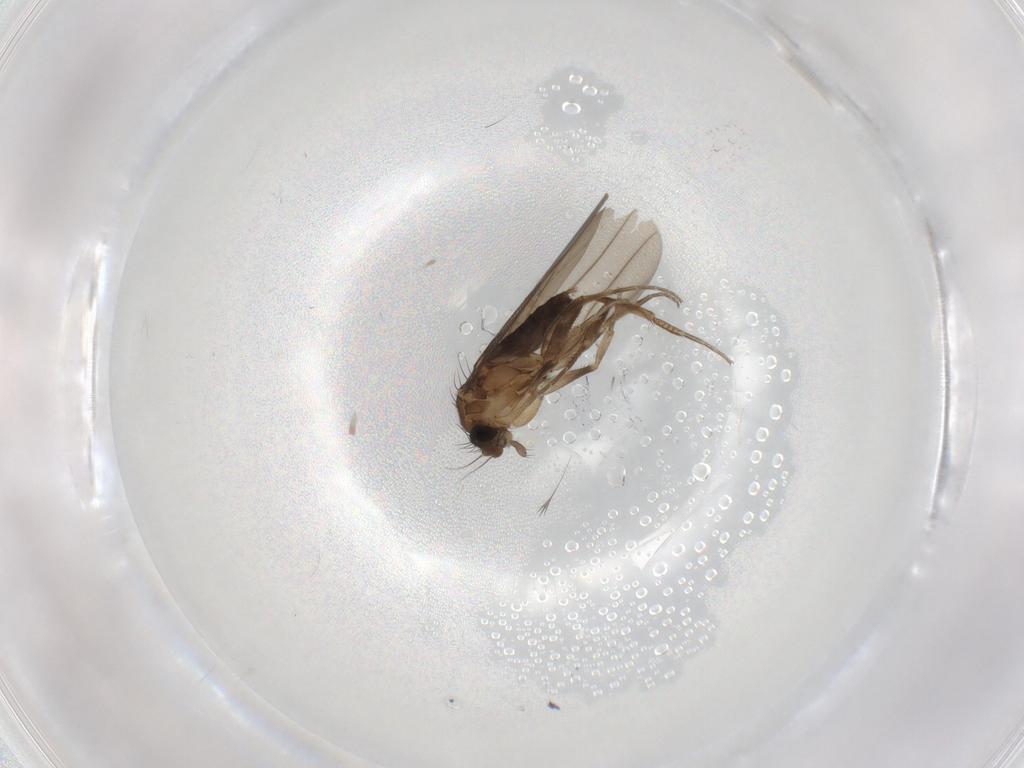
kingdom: Animalia
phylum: Arthropoda
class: Insecta
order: Diptera
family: Phoridae
